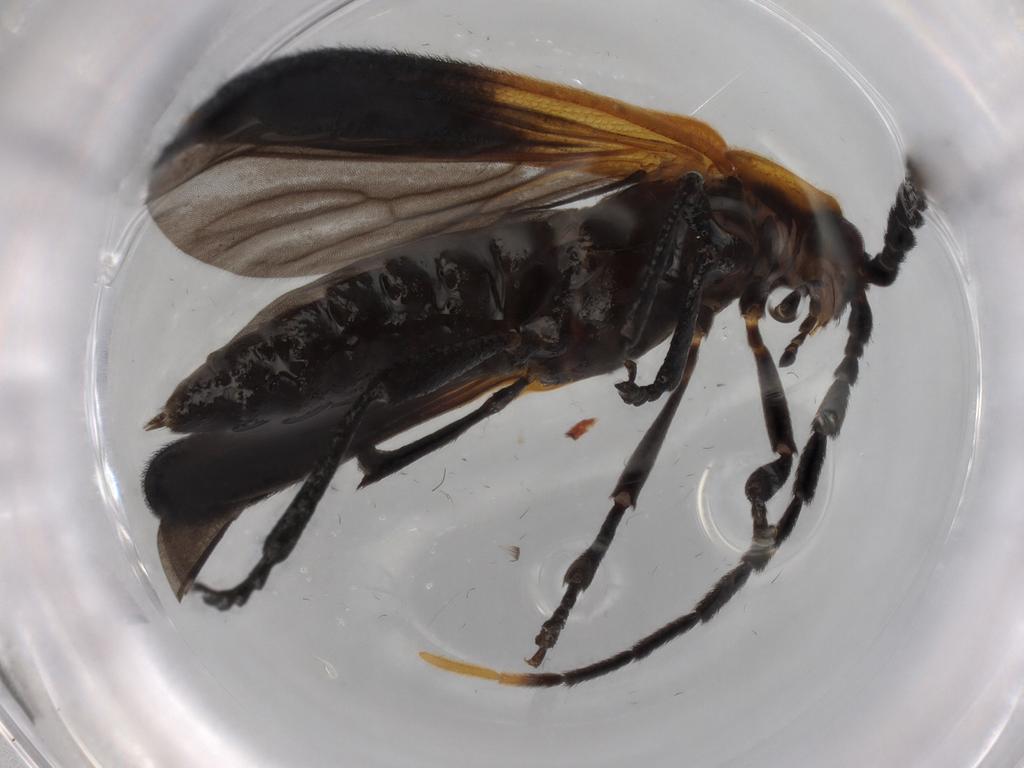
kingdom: Animalia
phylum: Arthropoda
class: Insecta
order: Coleoptera
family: Lycidae
